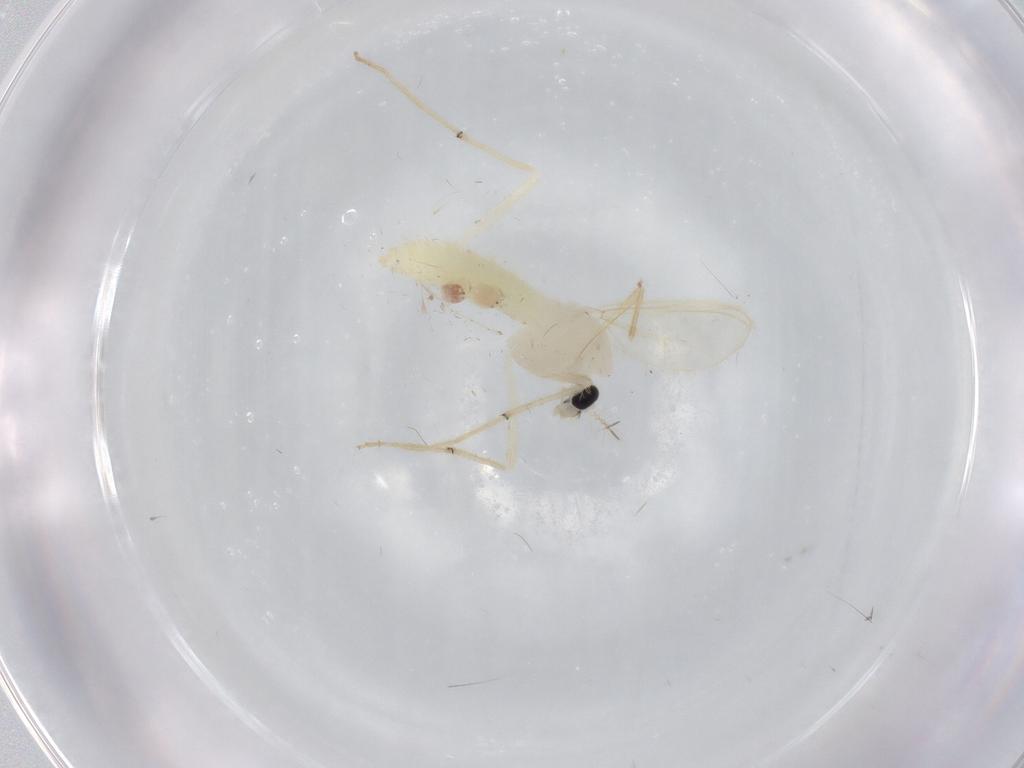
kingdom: Animalia
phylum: Arthropoda
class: Insecta
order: Diptera
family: Chironomidae
